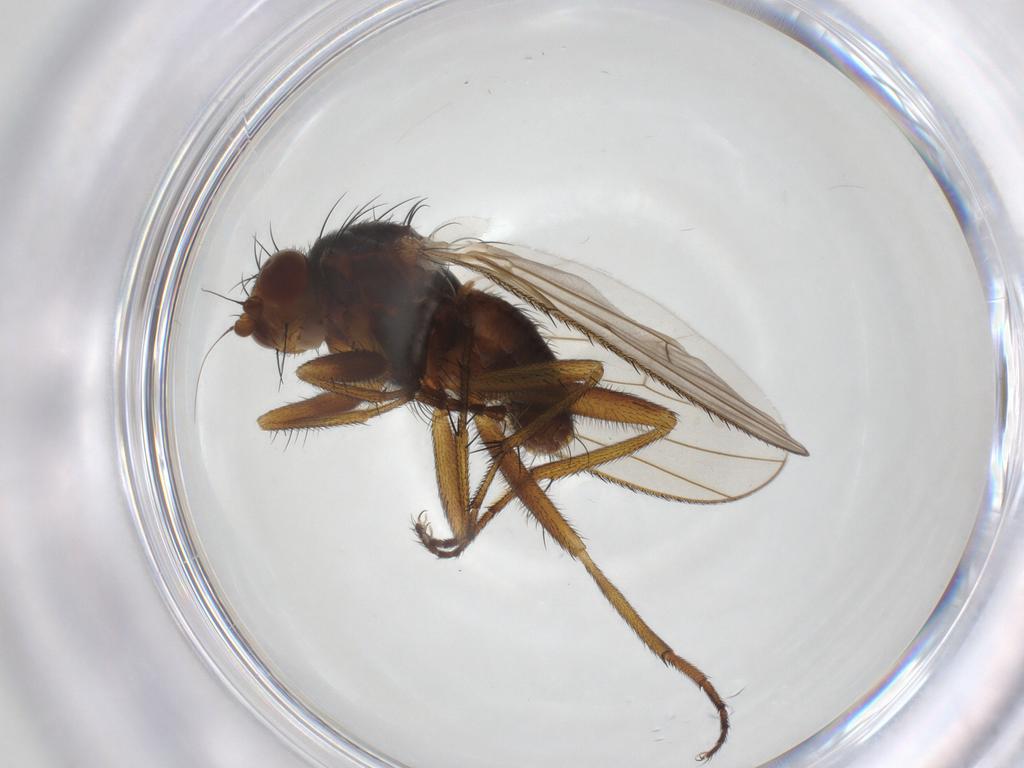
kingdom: Animalia
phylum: Arthropoda
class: Insecta
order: Diptera
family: Heleomyzidae
